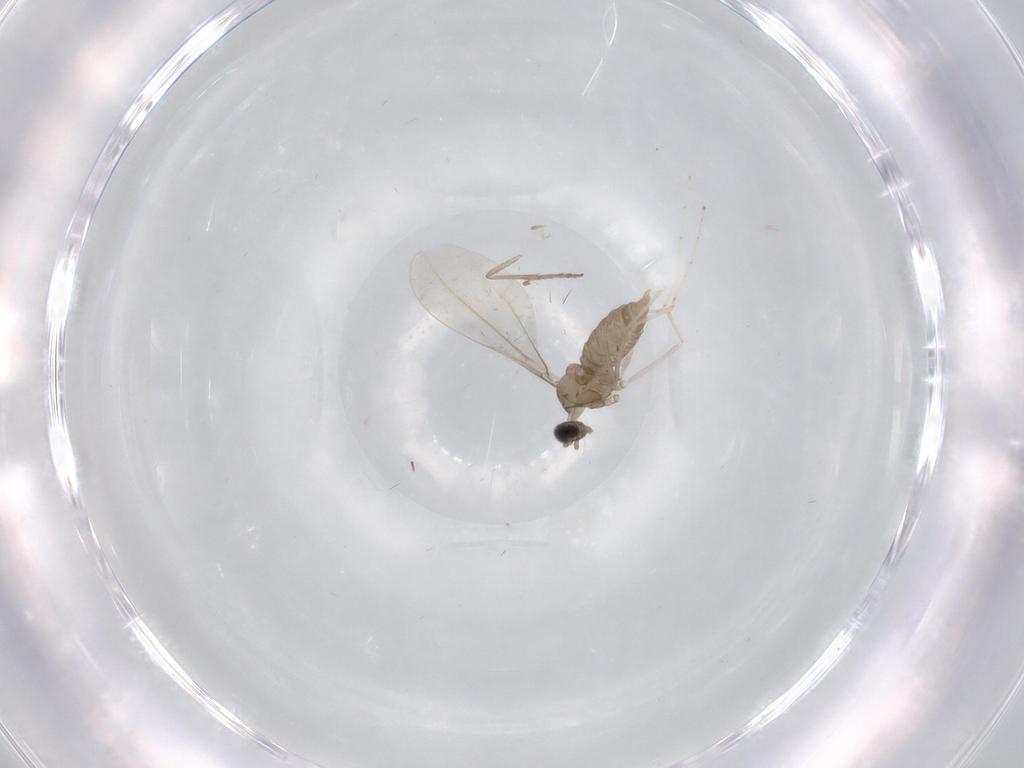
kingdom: Animalia
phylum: Arthropoda
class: Insecta
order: Diptera
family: Cecidomyiidae
